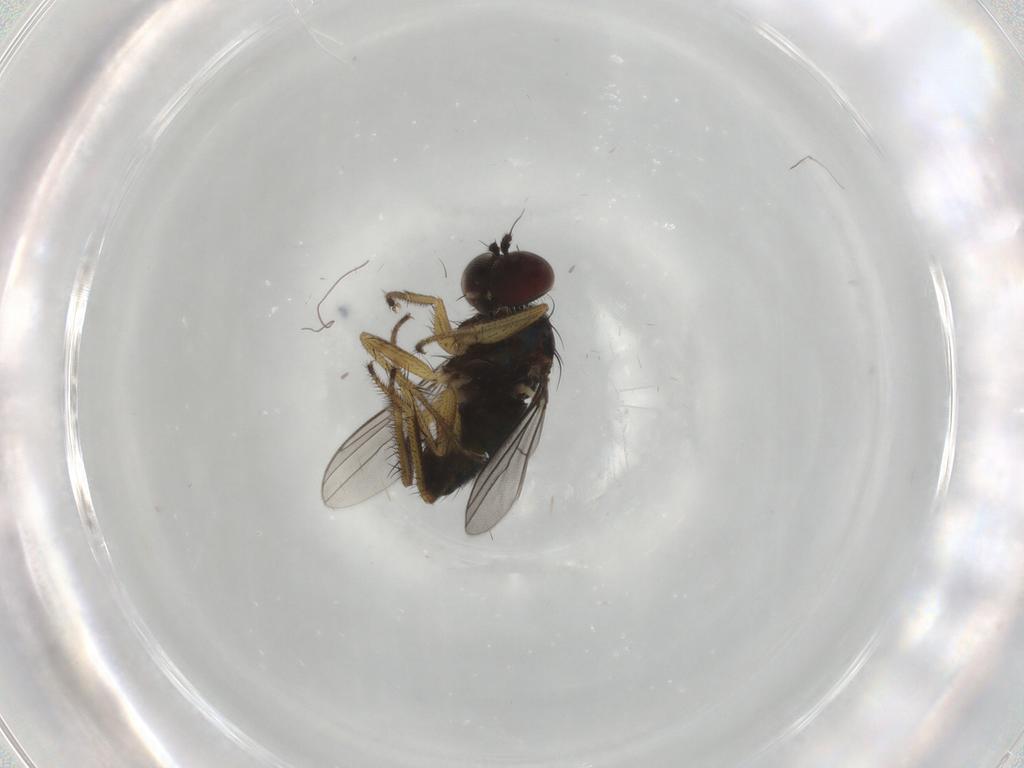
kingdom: Animalia
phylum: Arthropoda
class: Insecta
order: Diptera
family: Dolichopodidae
